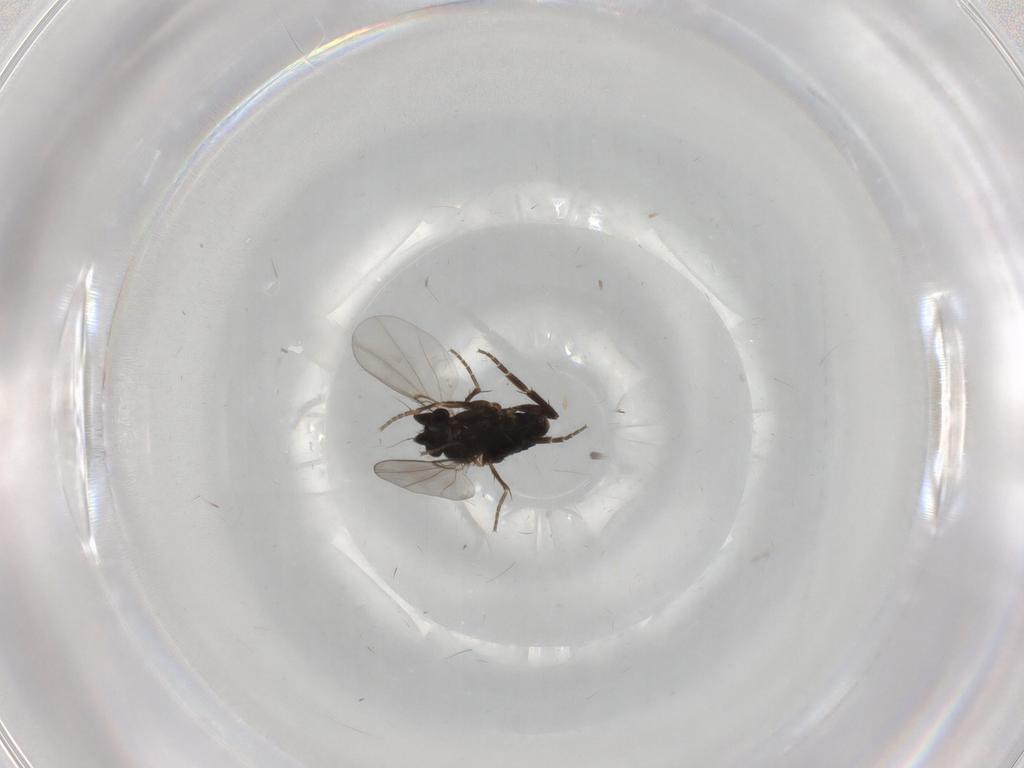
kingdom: Animalia
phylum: Arthropoda
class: Insecta
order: Diptera
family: Phoridae
